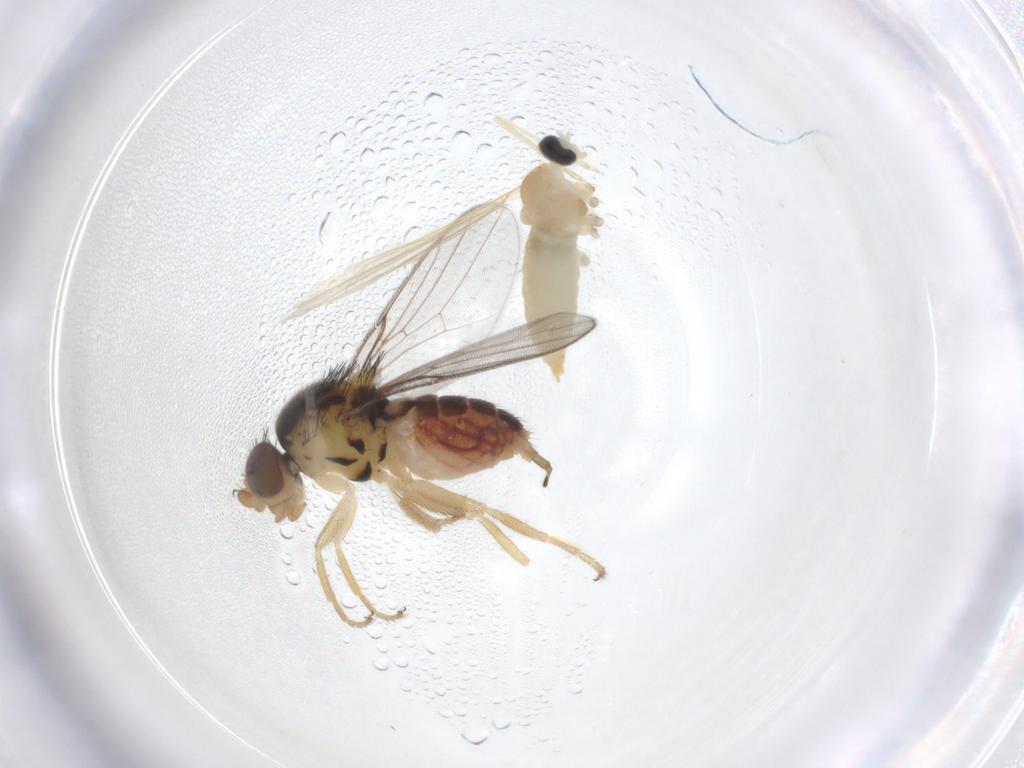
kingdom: Animalia
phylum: Arthropoda
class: Insecta
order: Diptera
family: Chloropidae
